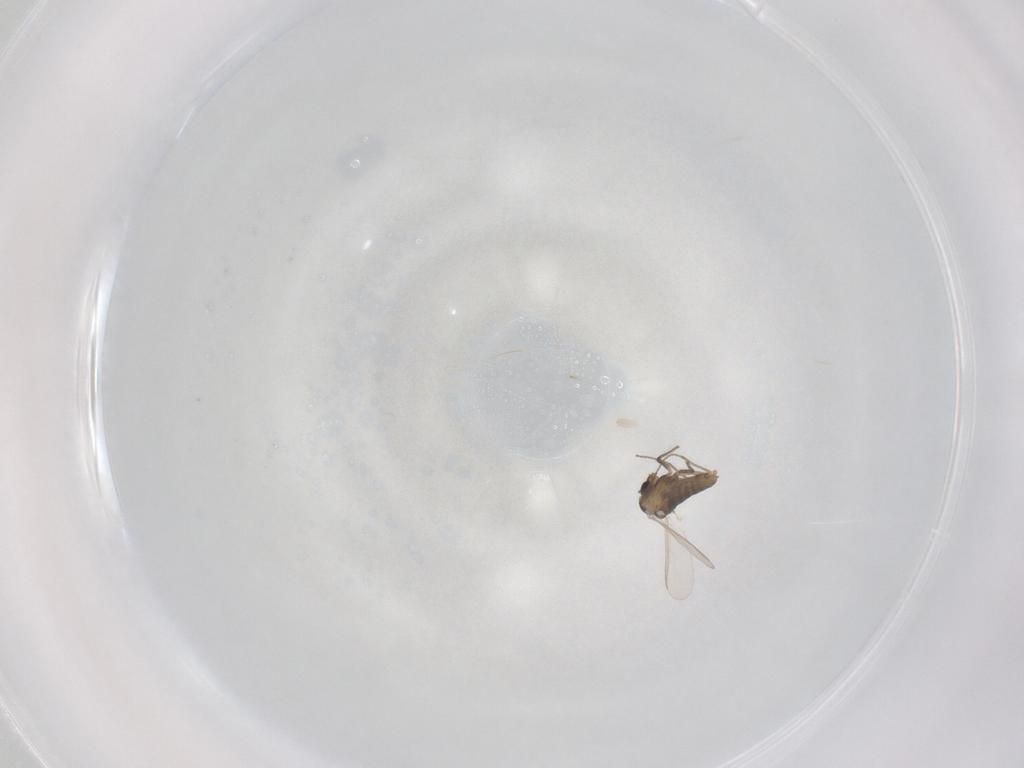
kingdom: Animalia
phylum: Arthropoda
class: Insecta
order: Diptera
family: Chironomidae
